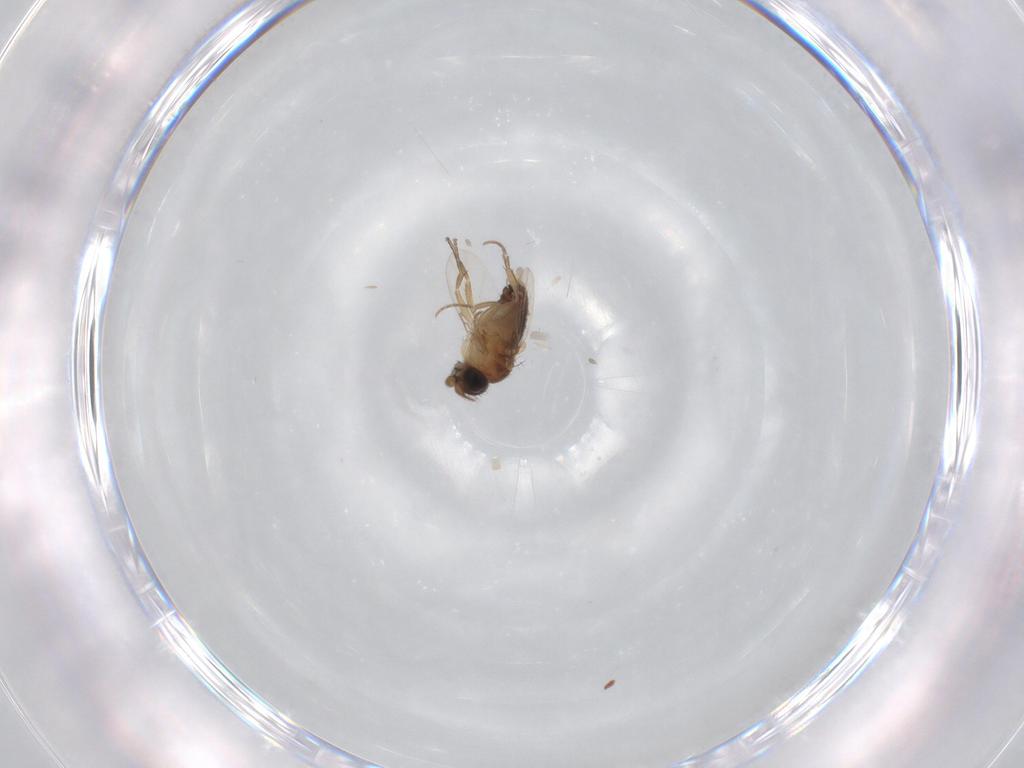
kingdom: Animalia
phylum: Arthropoda
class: Insecta
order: Diptera
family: Phoridae
